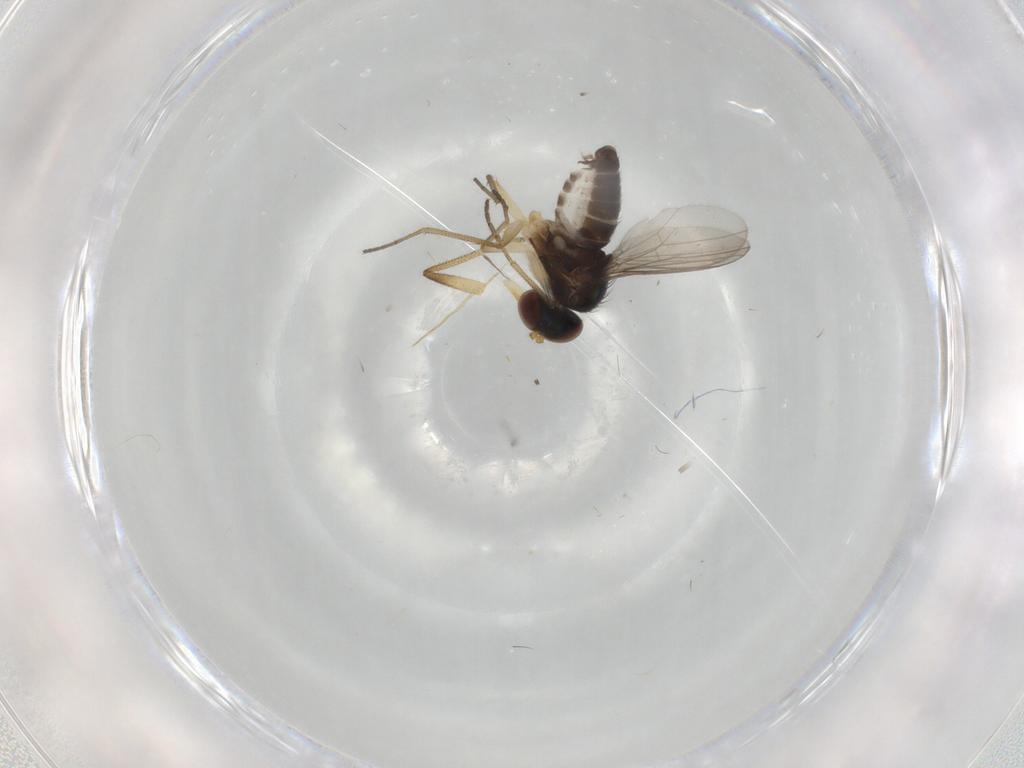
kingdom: Animalia
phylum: Arthropoda
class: Insecta
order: Diptera
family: Dolichopodidae
